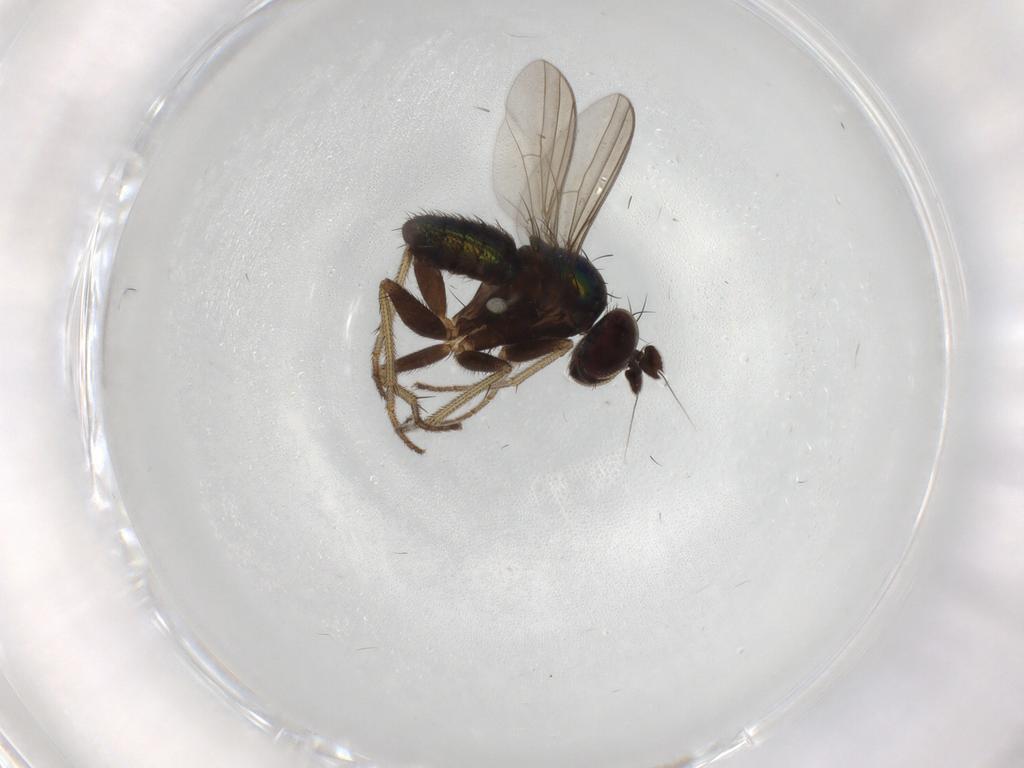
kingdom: Animalia
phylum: Arthropoda
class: Insecta
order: Diptera
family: Dolichopodidae
